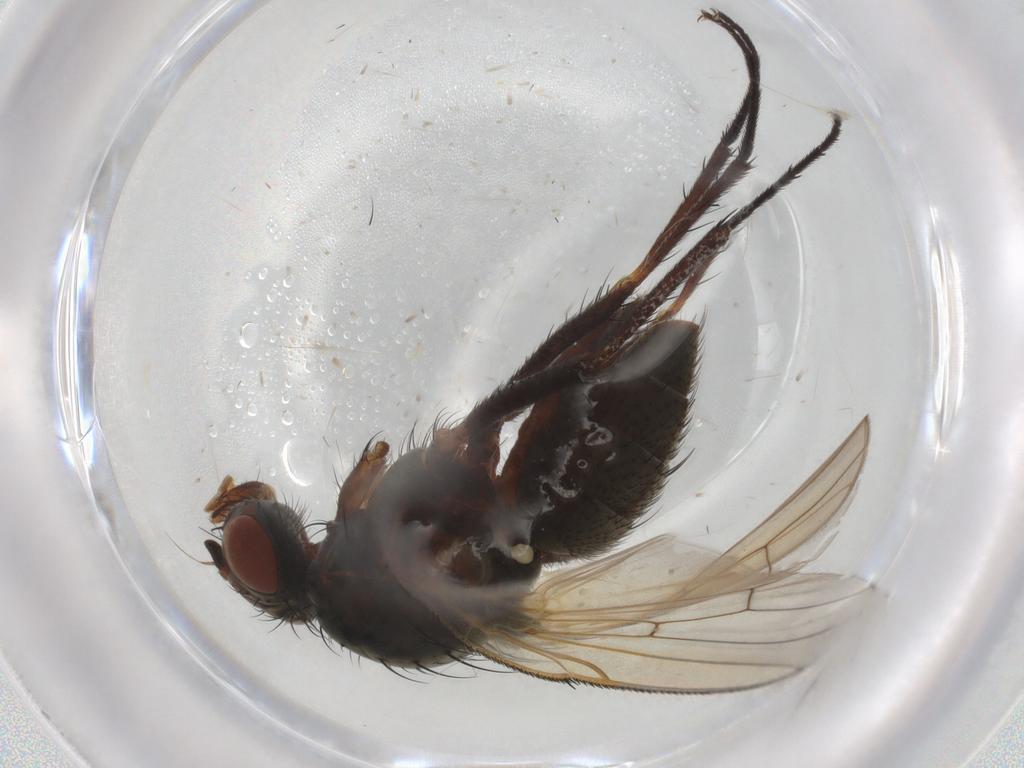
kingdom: Animalia
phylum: Arthropoda
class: Insecta
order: Diptera
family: Anthomyiidae
